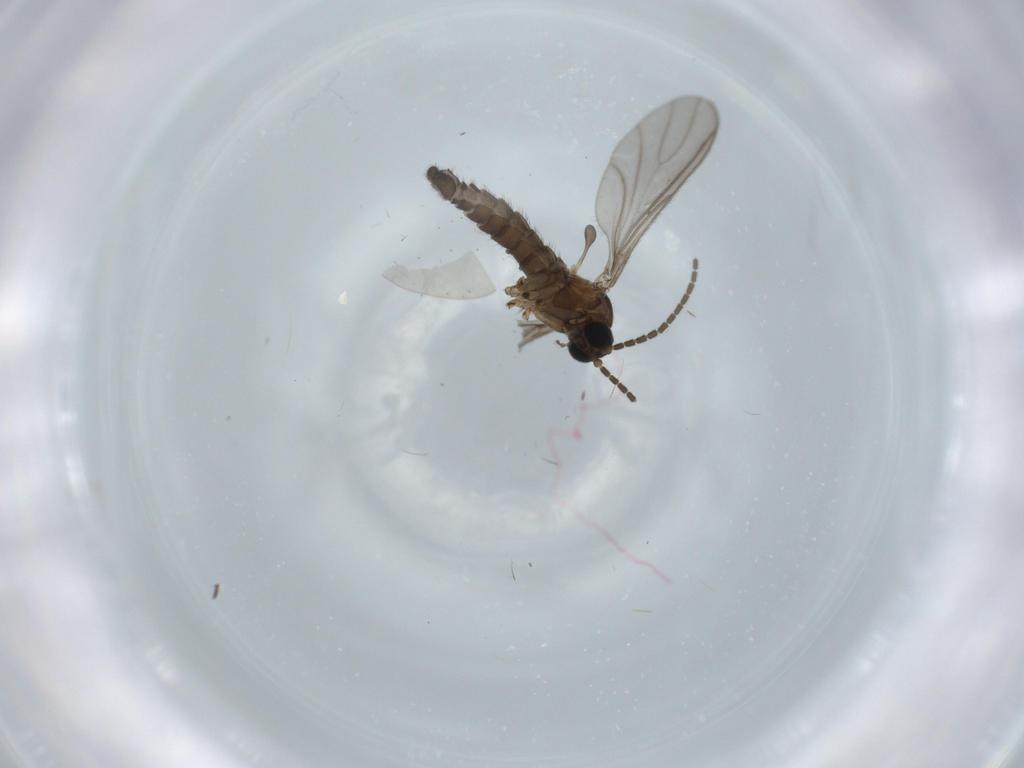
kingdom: Animalia
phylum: Arthropoda
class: Insecta
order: Diptera
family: Sciaridae
